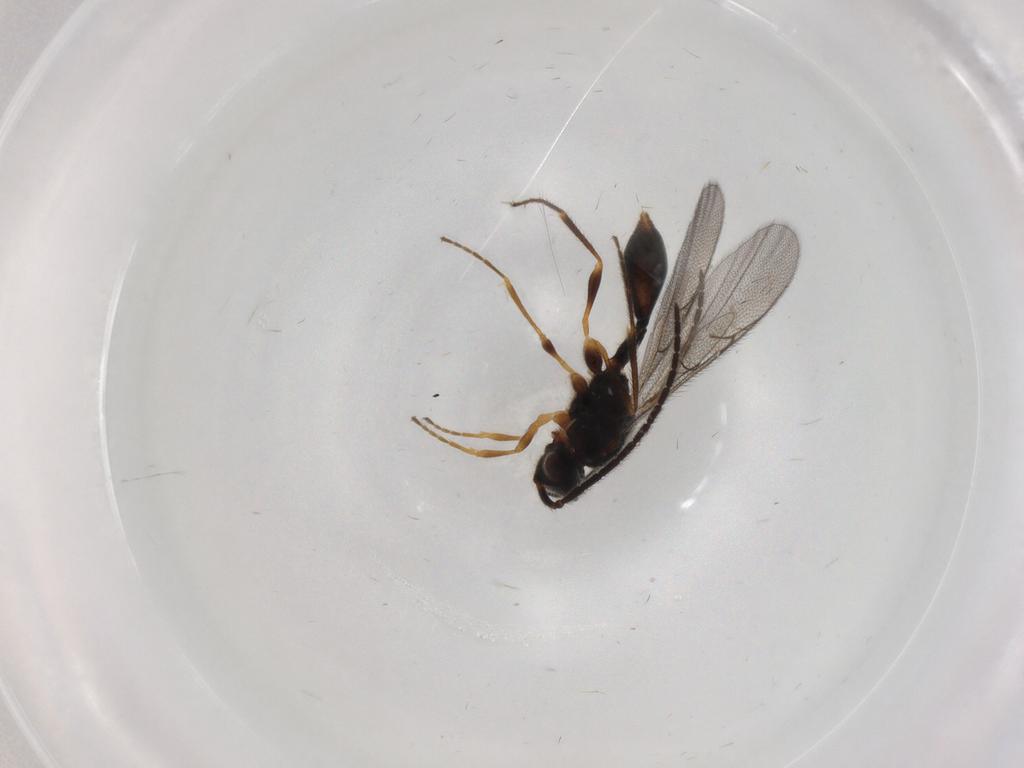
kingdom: Animalia
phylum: Arthropoda
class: Insecta
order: Hymenoptera
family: Diapriidae
